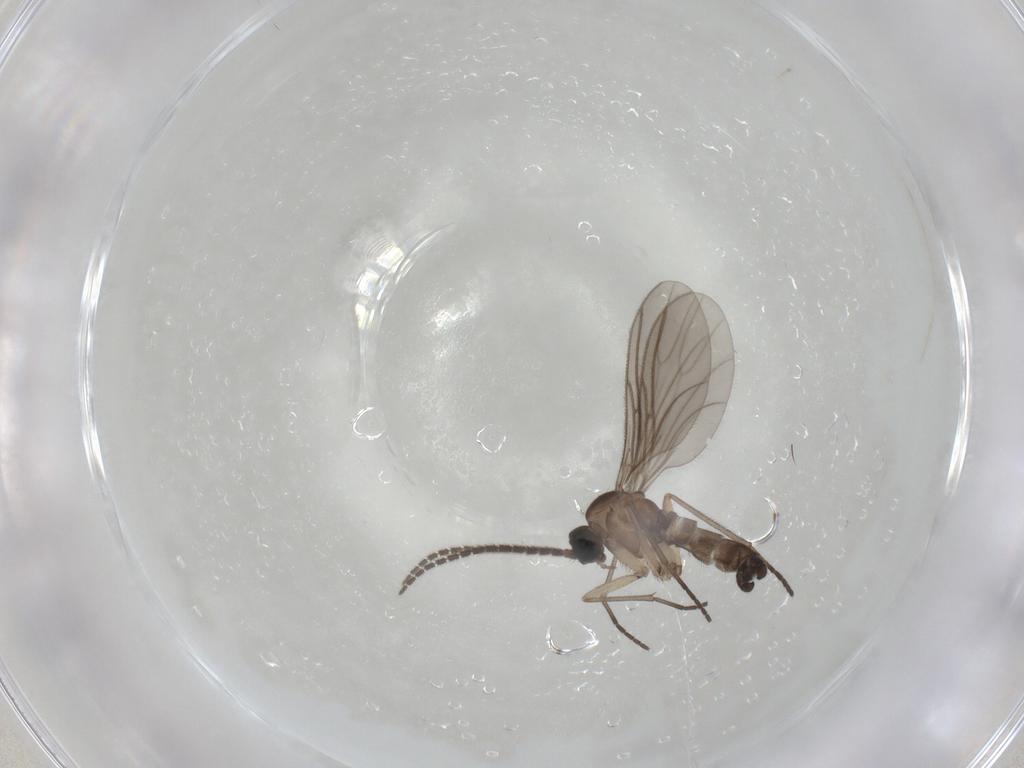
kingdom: Animalia
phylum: Arthropoda
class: Insecta
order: Diptera
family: Sciaridae
